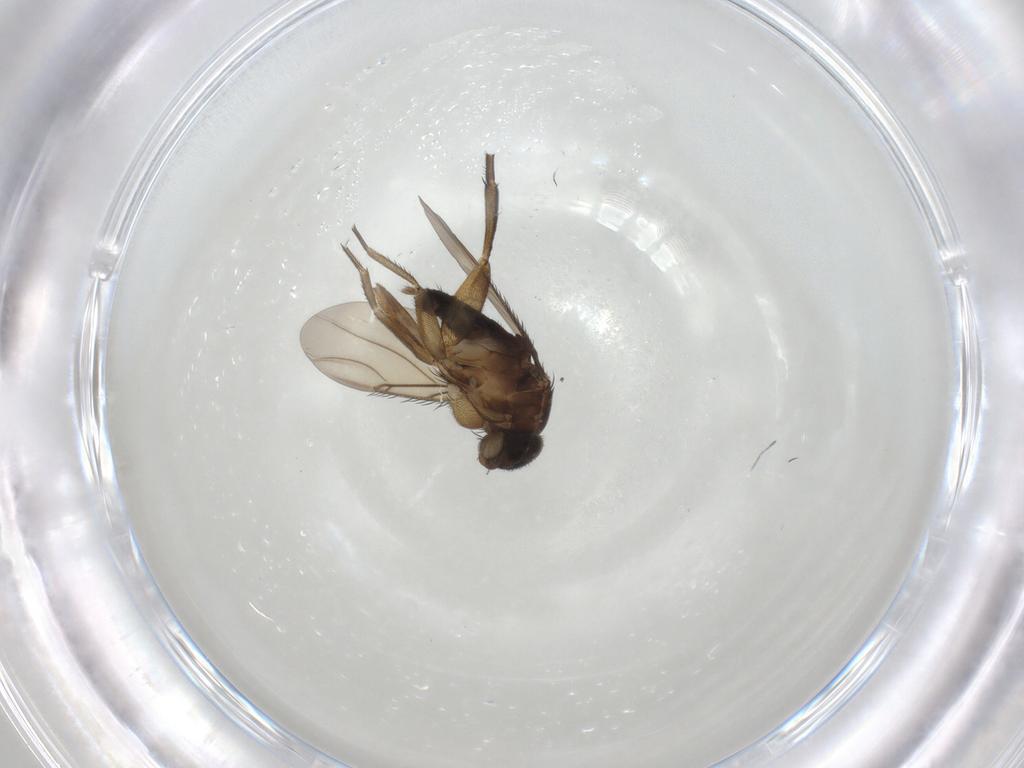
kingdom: Animalia
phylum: Arthropoda
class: Insecta
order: Diptera
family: Phoridae
